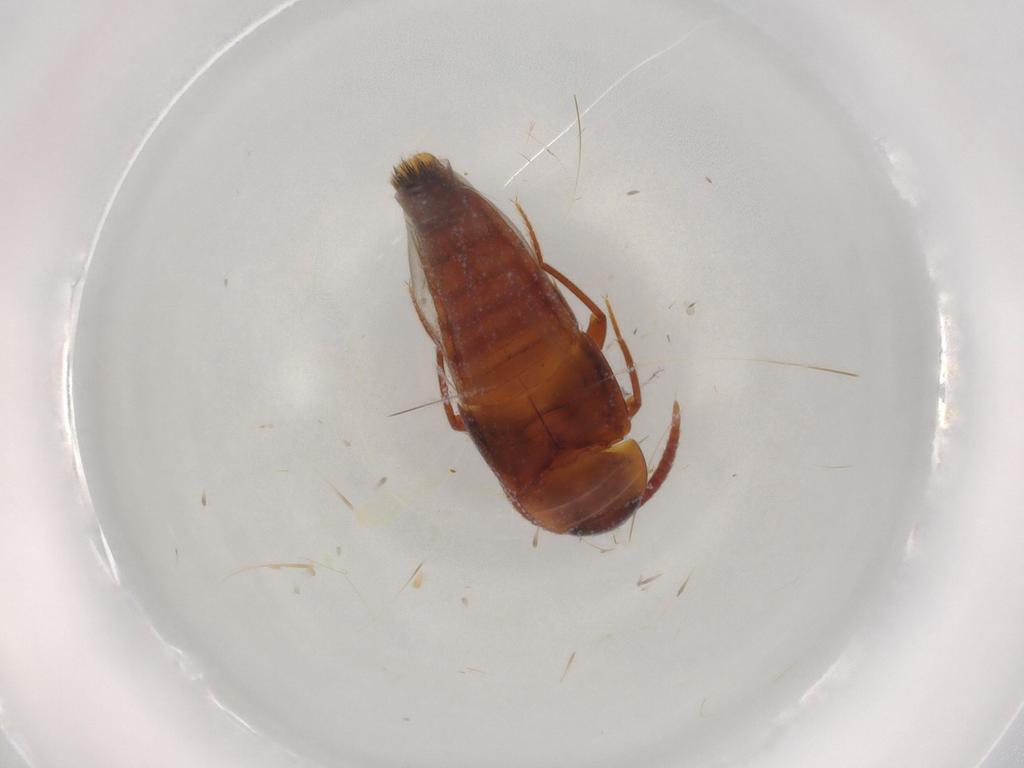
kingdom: Animalia
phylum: Arthropoda
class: Insecta
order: Coleoptera
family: Staphylinidae
